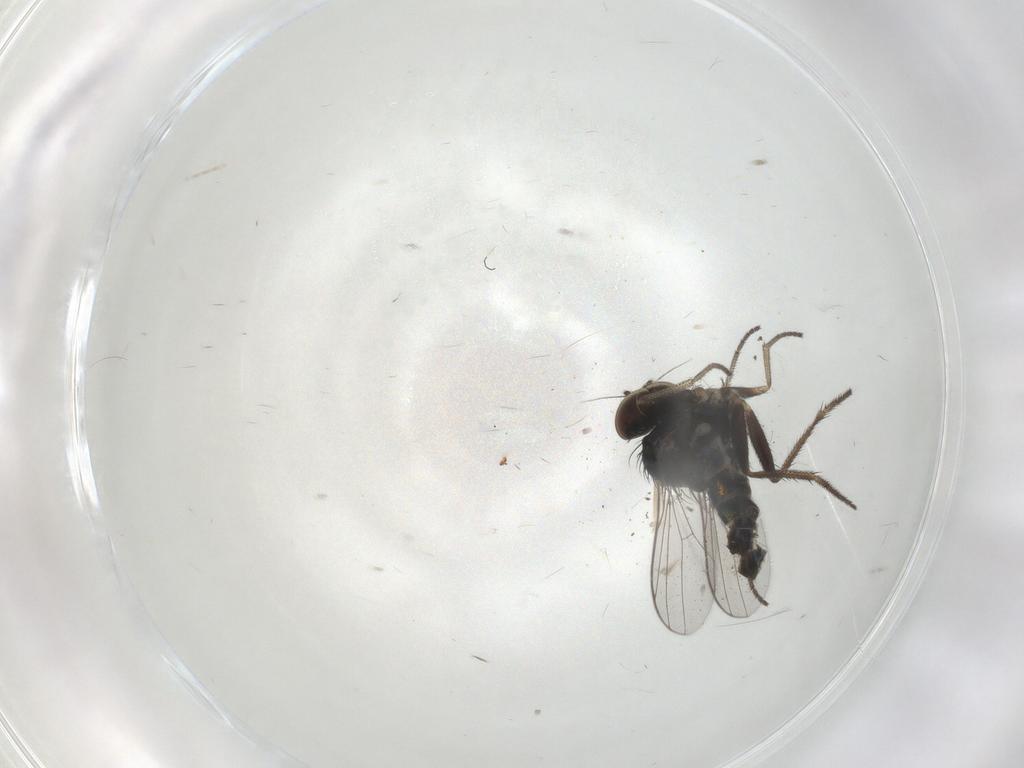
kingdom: Animalia
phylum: Arthropoda
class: Insecta
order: Diptera
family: Dolichopodidae
